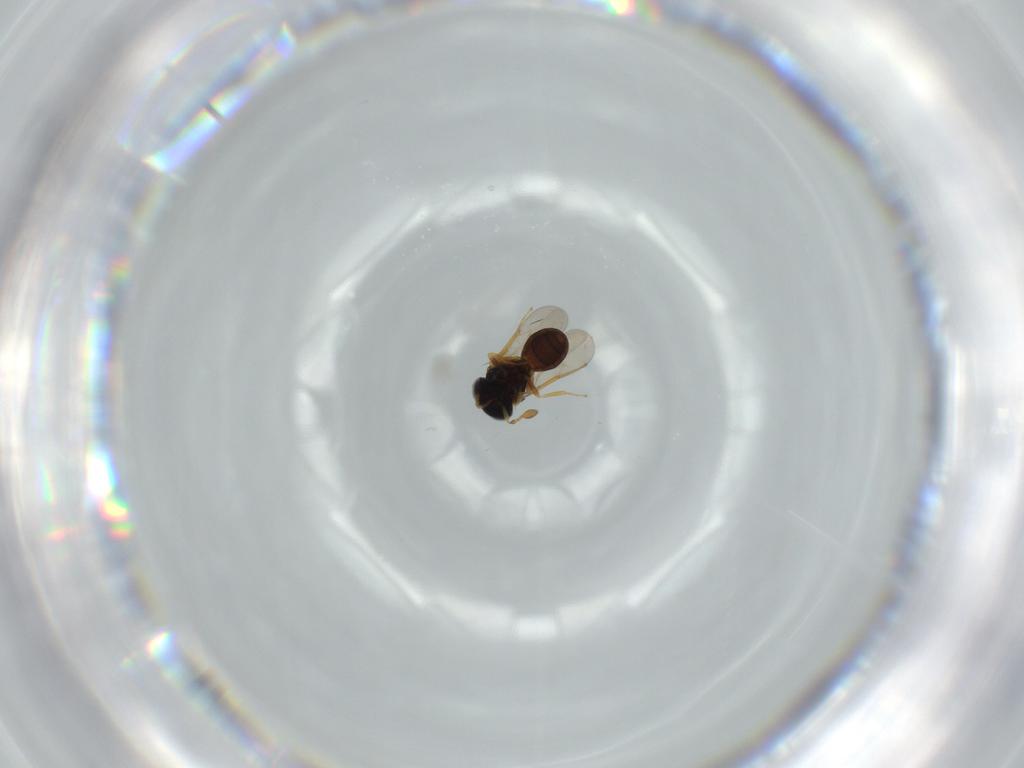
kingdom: Animalia
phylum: Arthropoda
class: Insecta
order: Hymenoptera
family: Scelionidae
